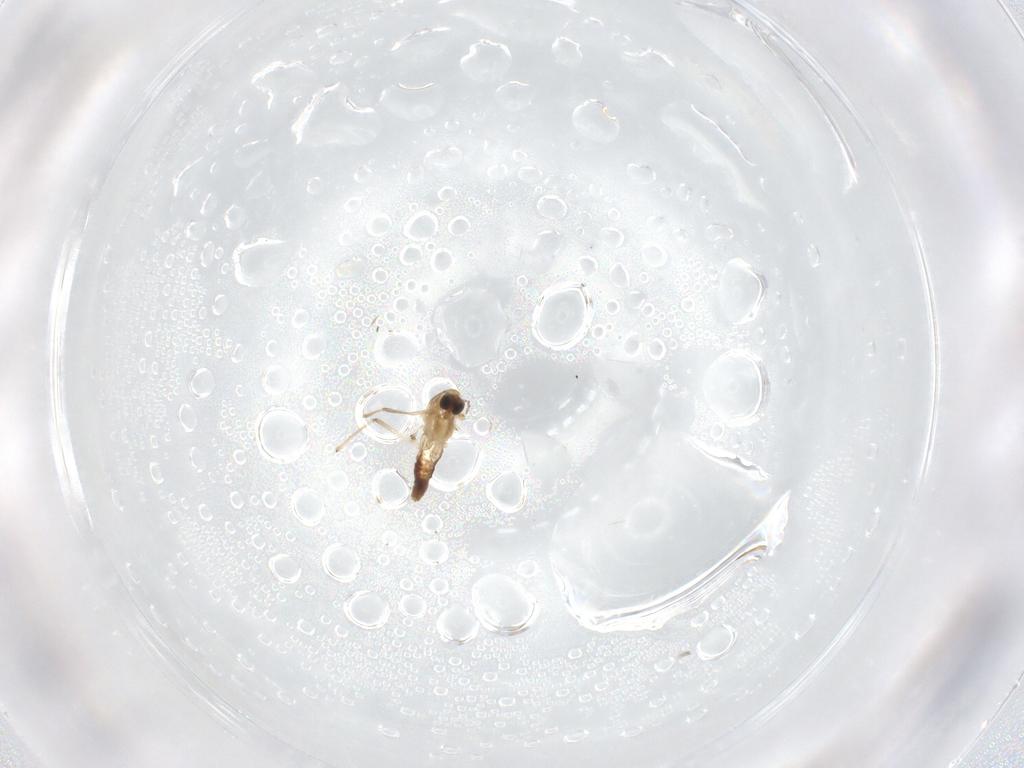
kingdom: Animalia
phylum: Arthropoda
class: Insecta
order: Diptera
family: Chironomidae
